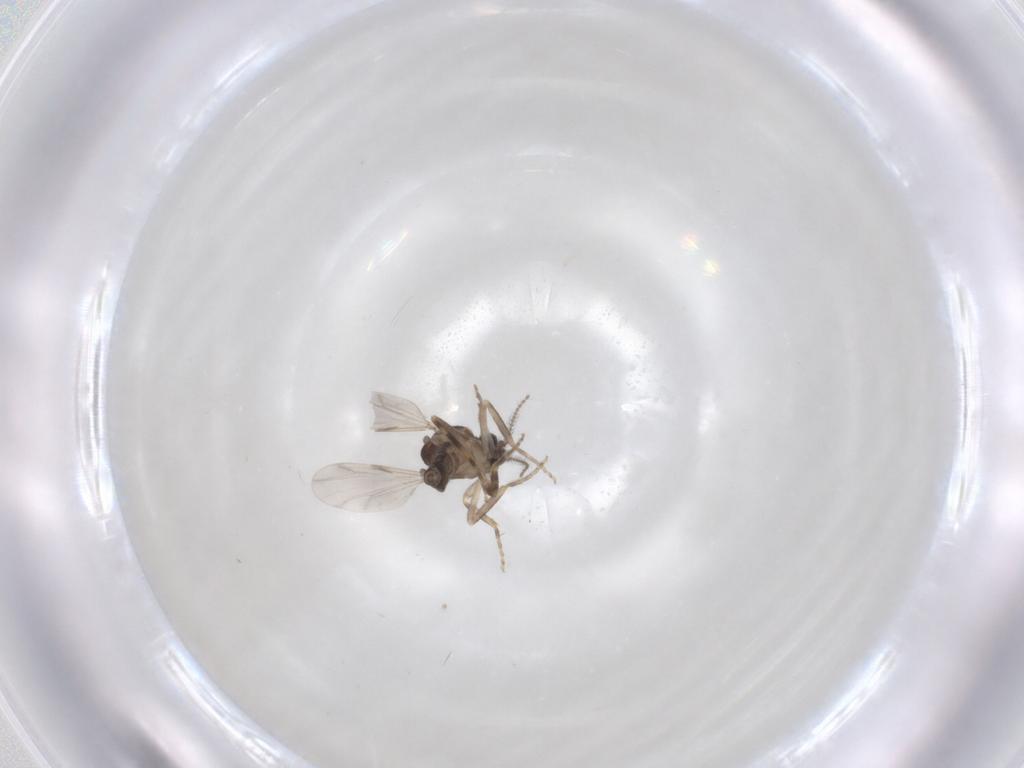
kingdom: Animalia
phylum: Arthropoda
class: Insecta
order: Diptera
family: Ceratopogonidae
